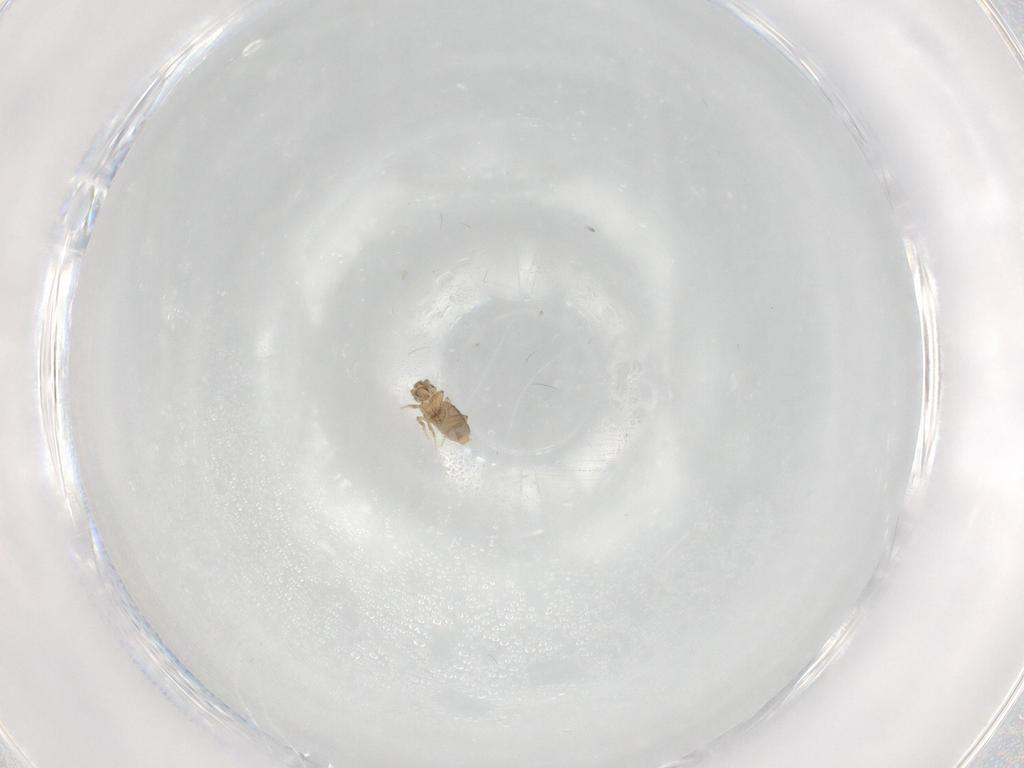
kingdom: Animalia
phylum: Arthropoda
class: Insecta
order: Diptera
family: Phoridae
